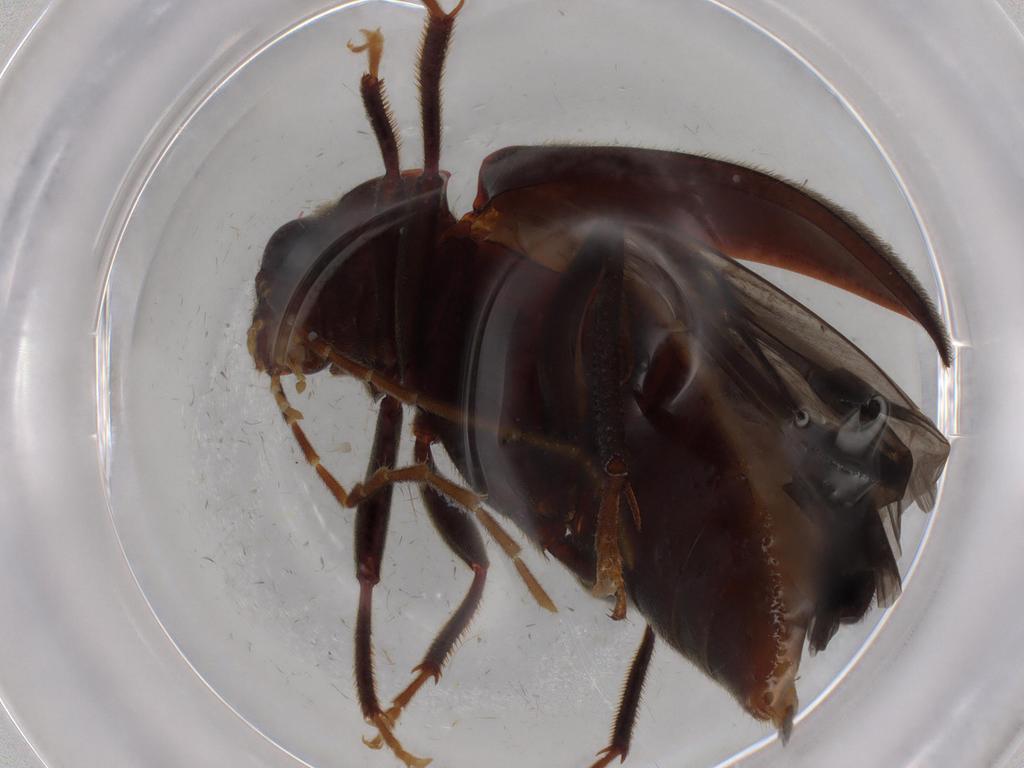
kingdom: Animalia
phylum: Arthropoda
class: Insecta
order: Coleoptera
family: Ptilodactylidae
